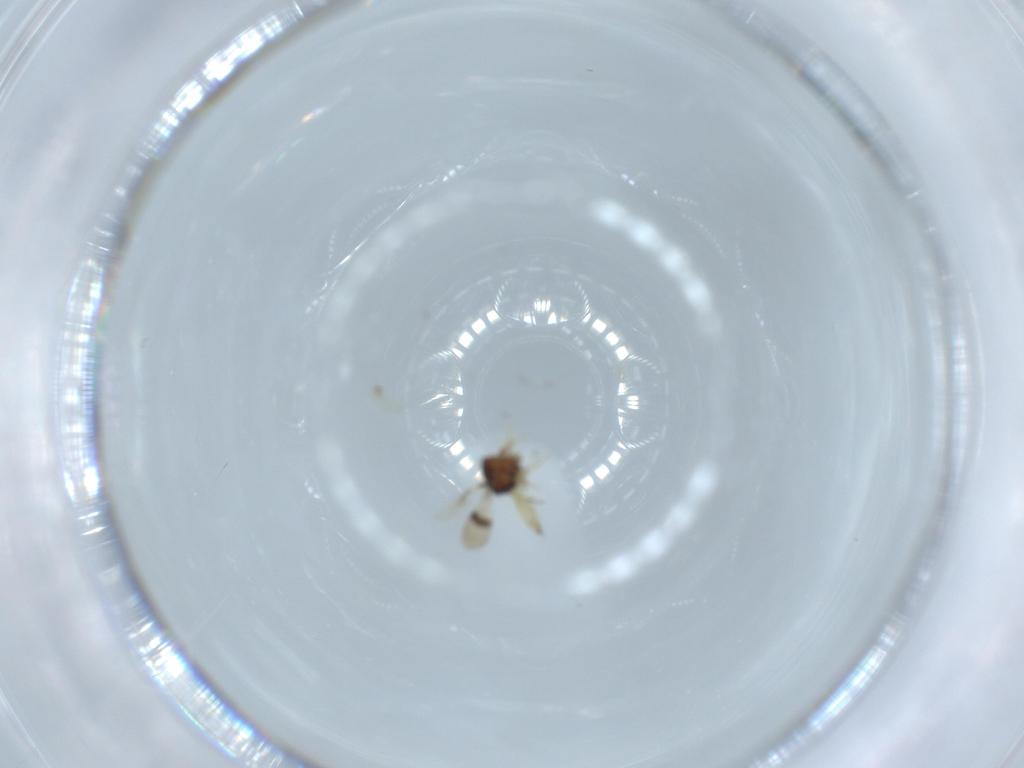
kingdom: Animalia
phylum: Arthropoda
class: Insecta
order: Hymenoptera
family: Scelionidae
